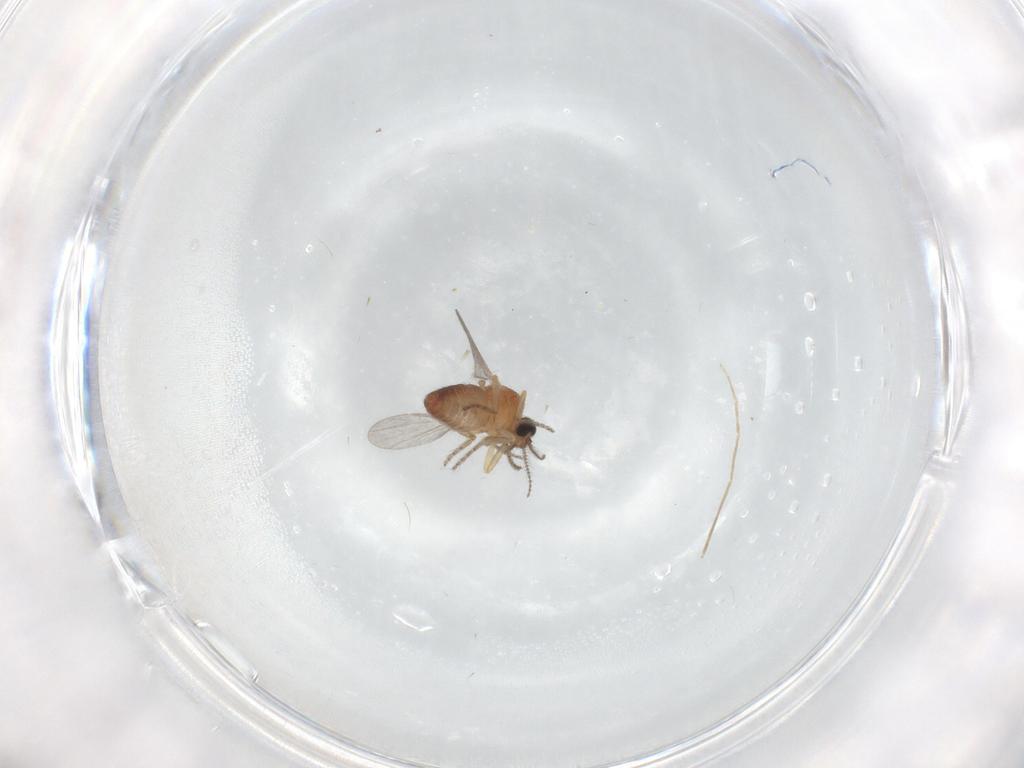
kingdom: Animalia
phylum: Arthropoda
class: Insecta
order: Diptera
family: Ceratopogonidae
